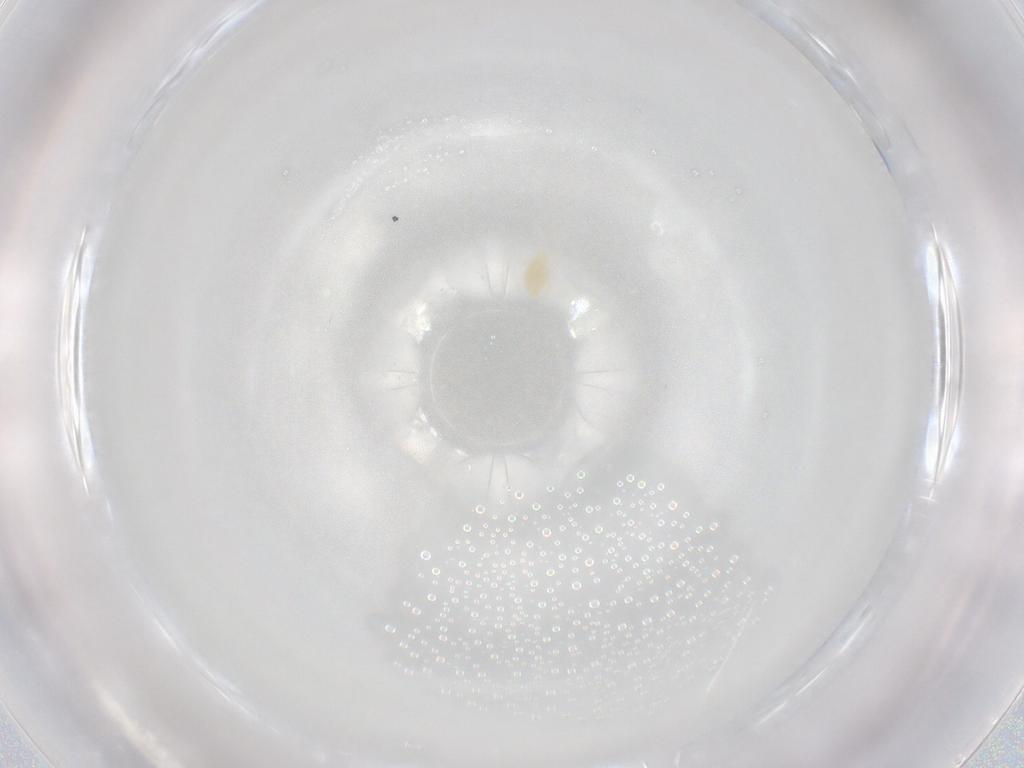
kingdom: Animalia
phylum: Arthropoda
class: Arachnida
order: Trombidiformes
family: Eupodidae
